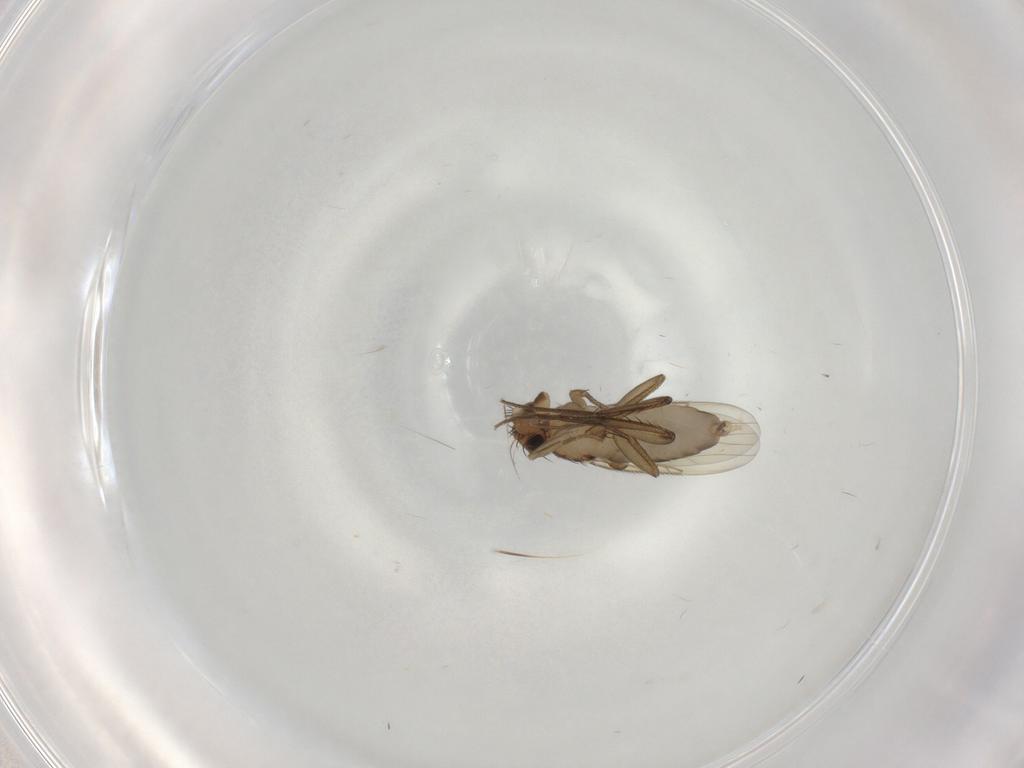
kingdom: Animalia
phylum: Arthropoda
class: Insecta
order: Diptera
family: Phoridae
